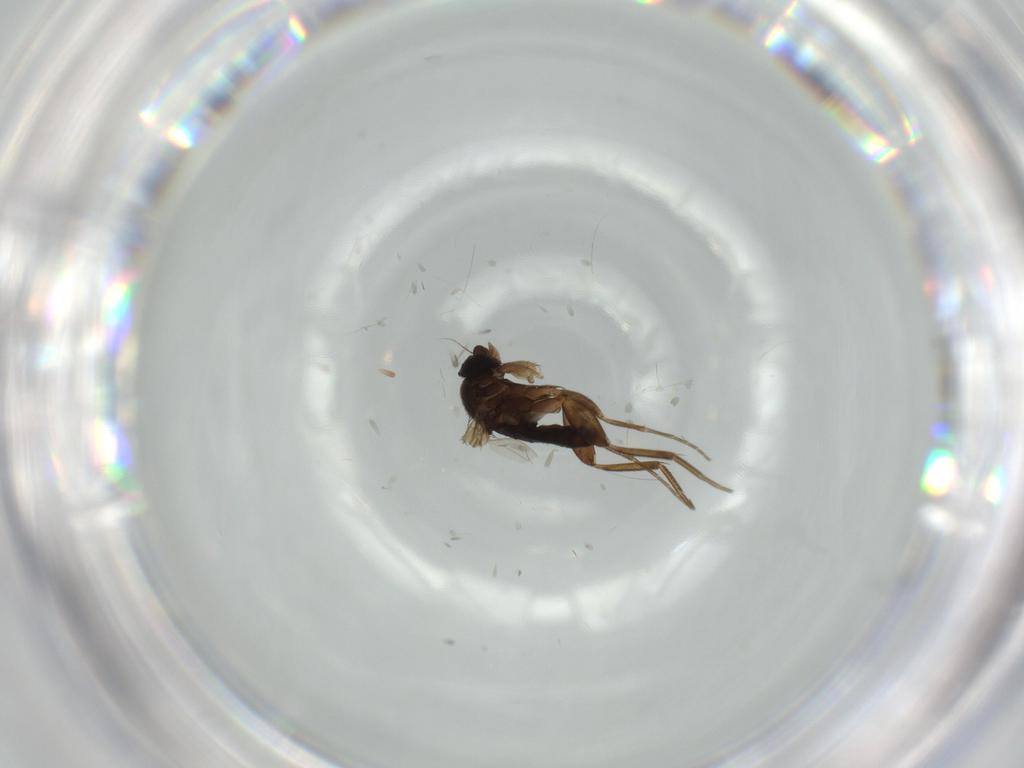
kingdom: Animalia
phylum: Arthropoda
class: Insecta
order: Diptera
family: Phoridae
